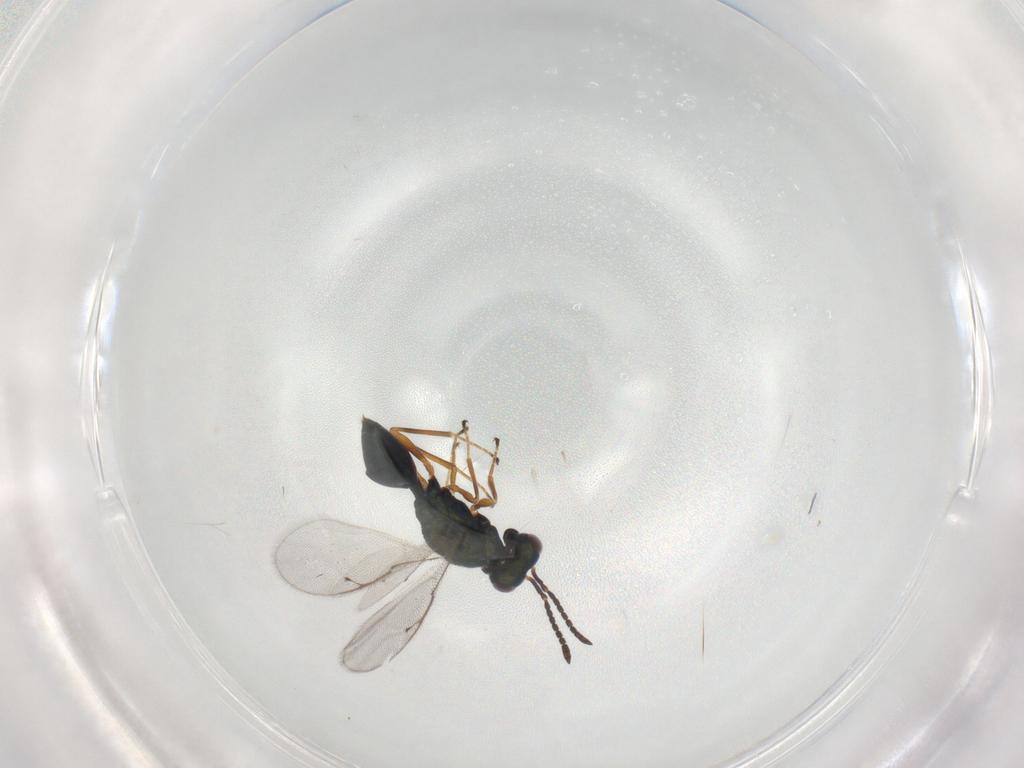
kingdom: Animalia
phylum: Arthropoda
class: Insecta
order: Hymenoptera
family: Pteromalidae
